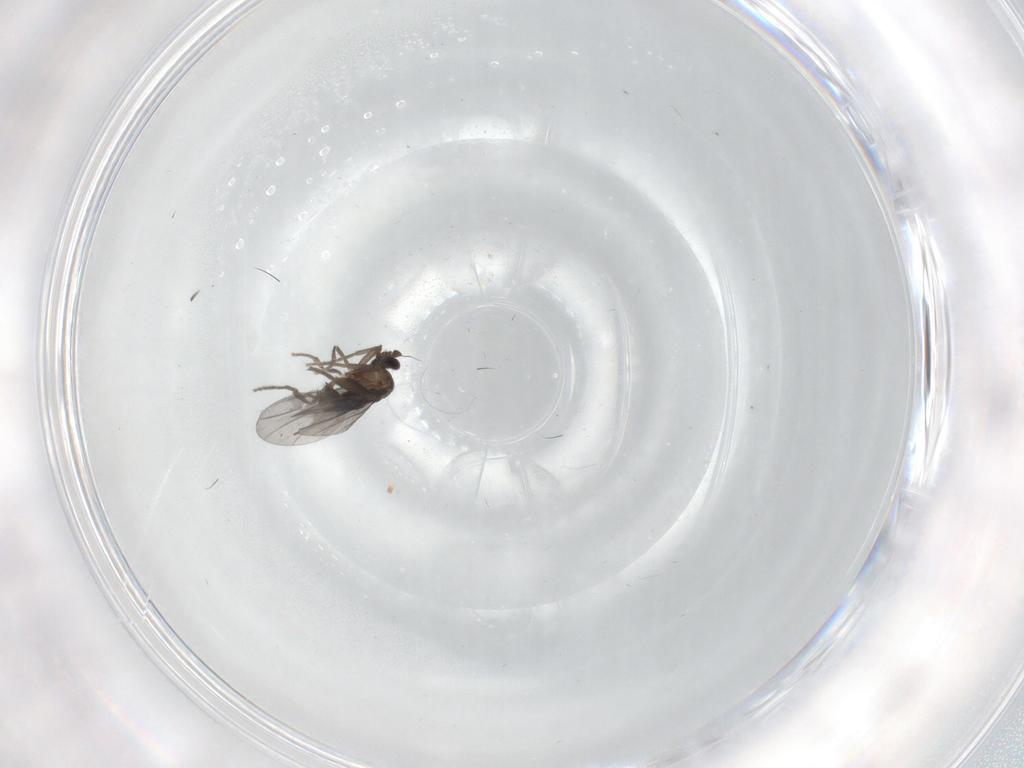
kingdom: Animalia
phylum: Arthropoda
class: Insecta
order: Diptera
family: Phoridae
